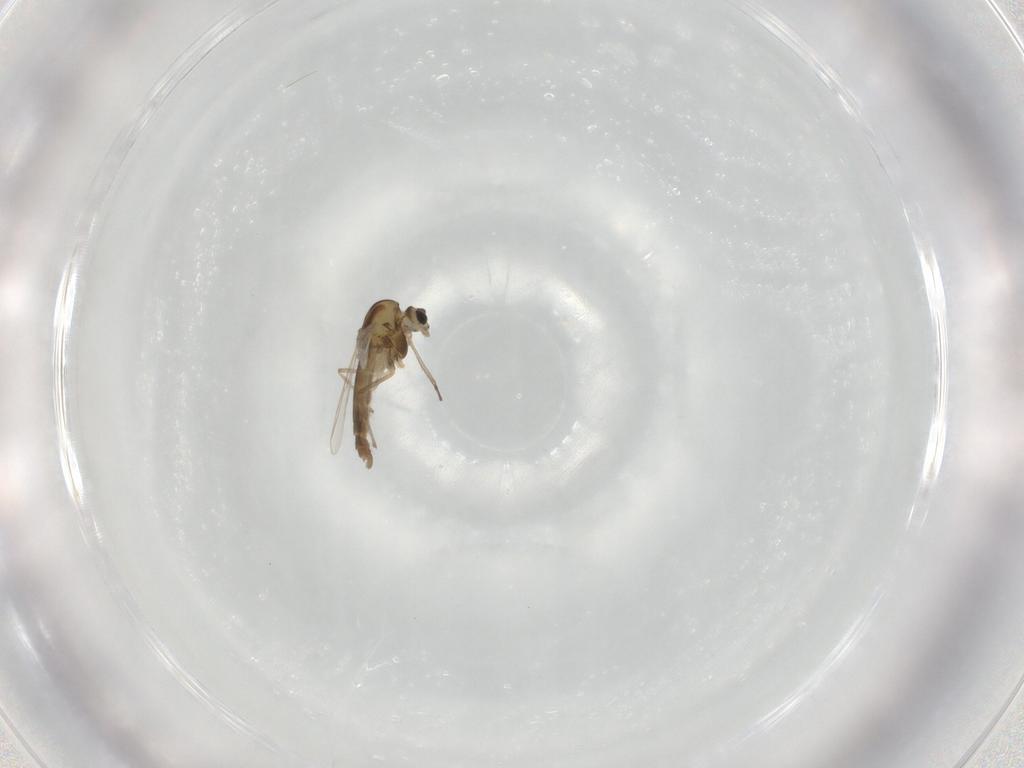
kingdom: Animalia
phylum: Arthropoda
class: Insecta
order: Diptera
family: Chironomidae
